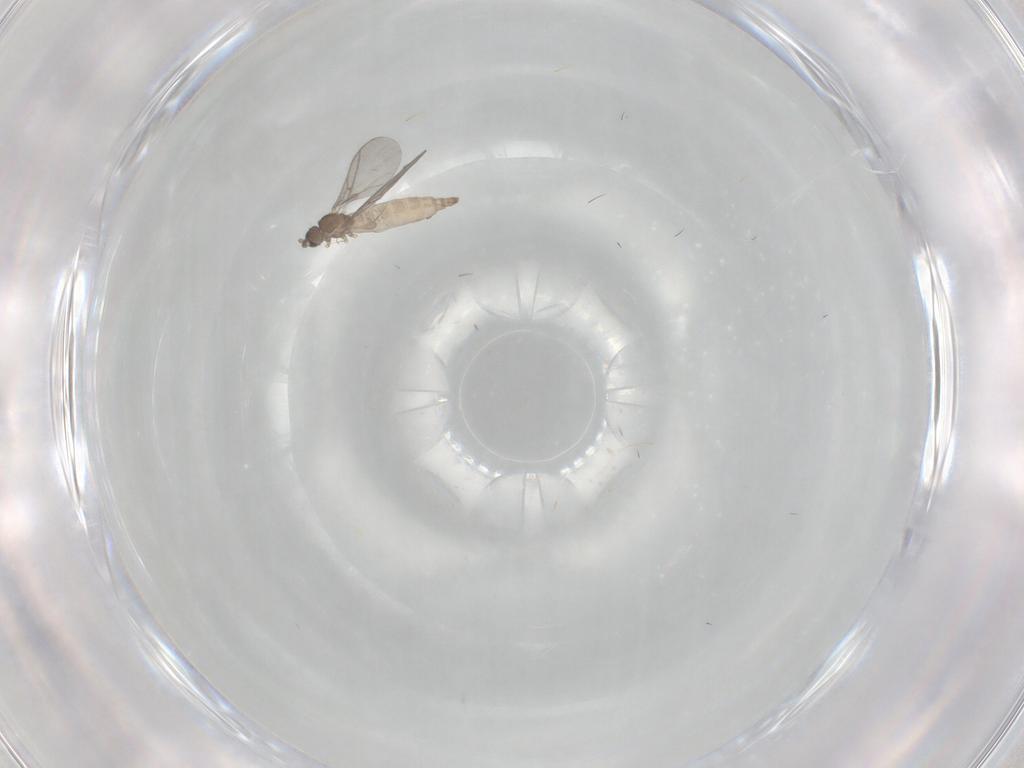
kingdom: Animalia
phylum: Arthropoda
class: Insecta
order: Diptera
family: Sciaridae
